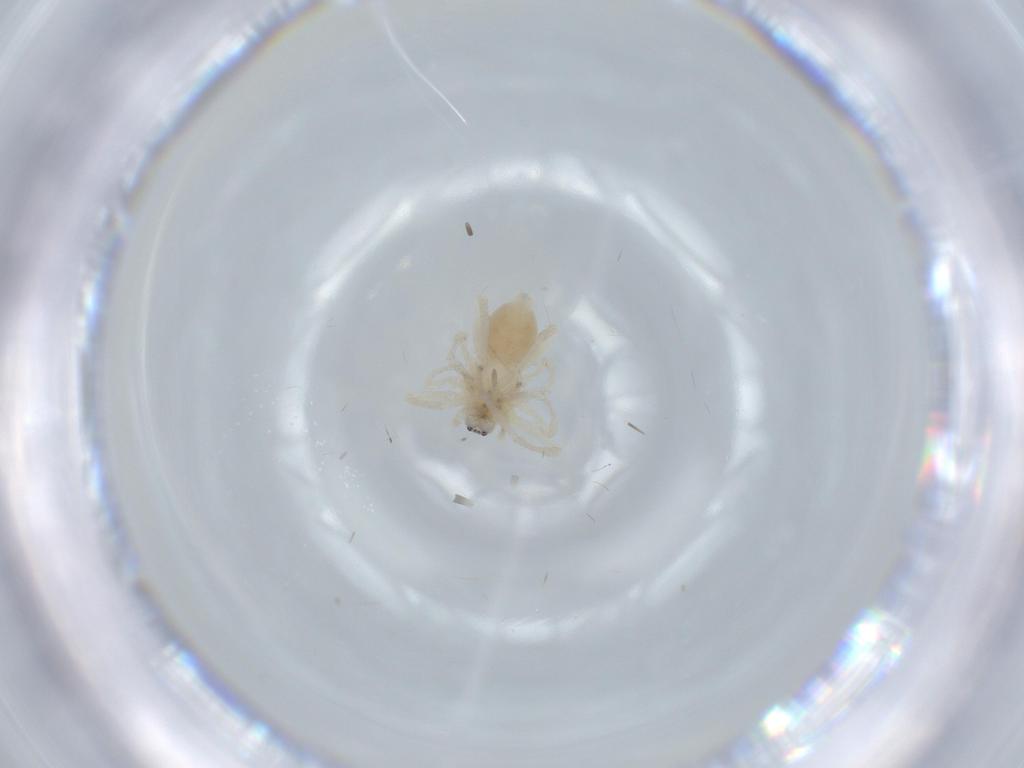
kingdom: Animalia
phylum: Arthropoda
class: Arachnida
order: Araneae
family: Anyphaenidae
